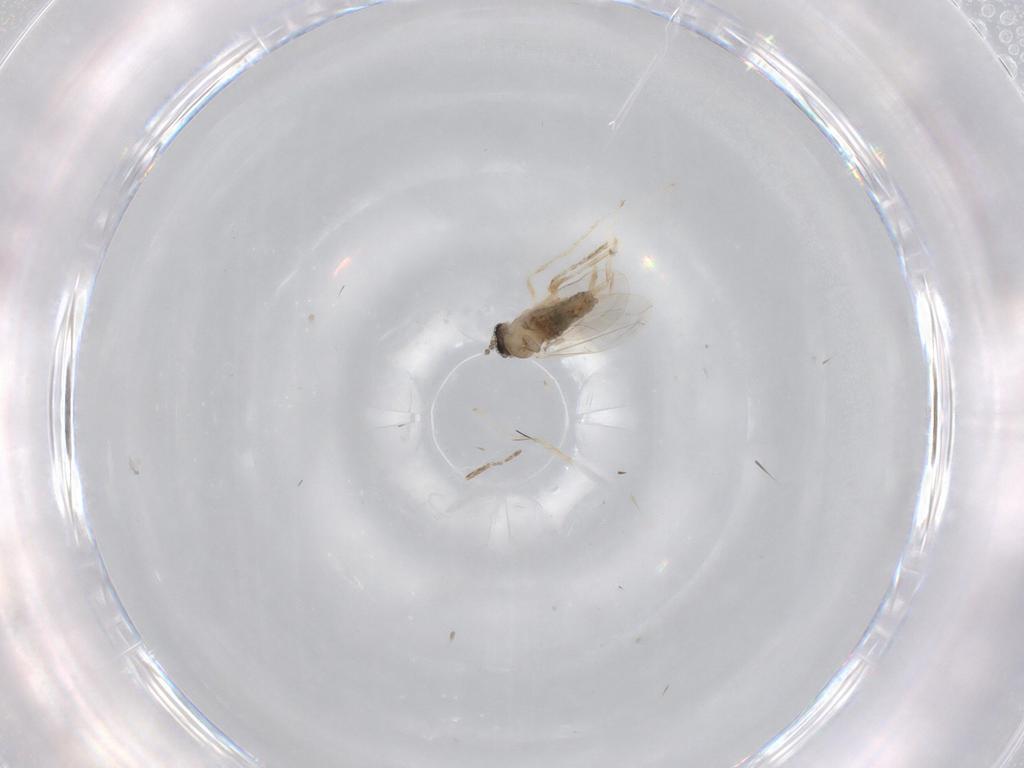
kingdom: Animalia
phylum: Arthropoda
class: Insecta
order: Diptera
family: Cecidomyiidae
